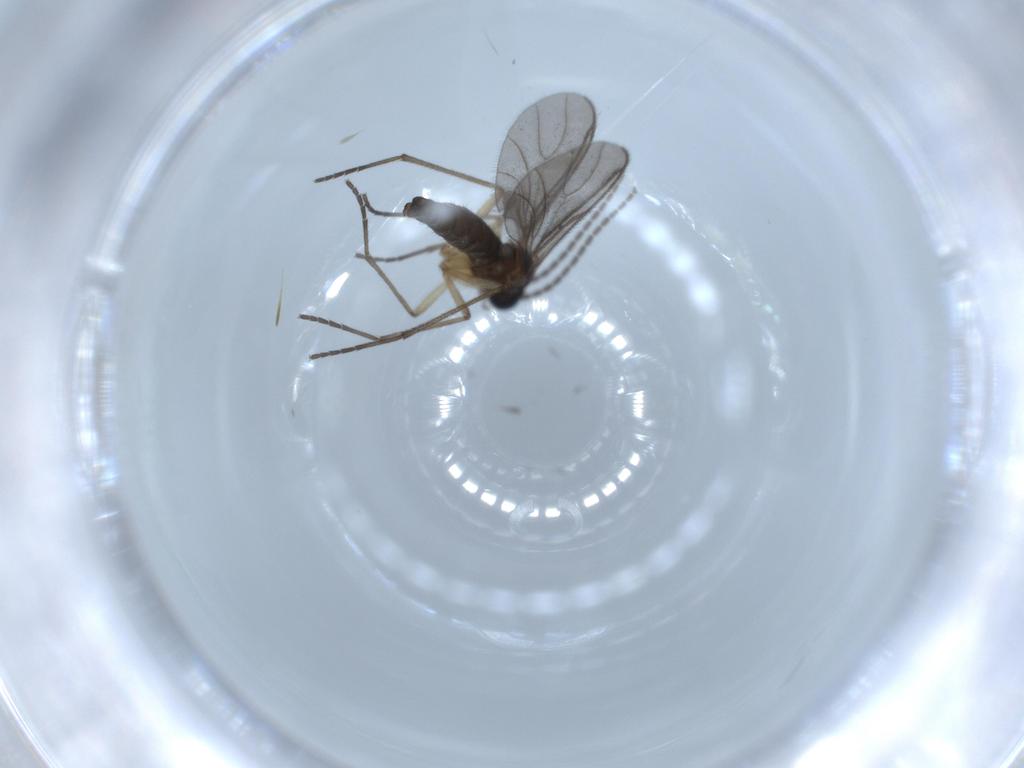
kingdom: Animalia
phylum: Arthropoda
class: Insecta
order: Diptera
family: Sciaridae
